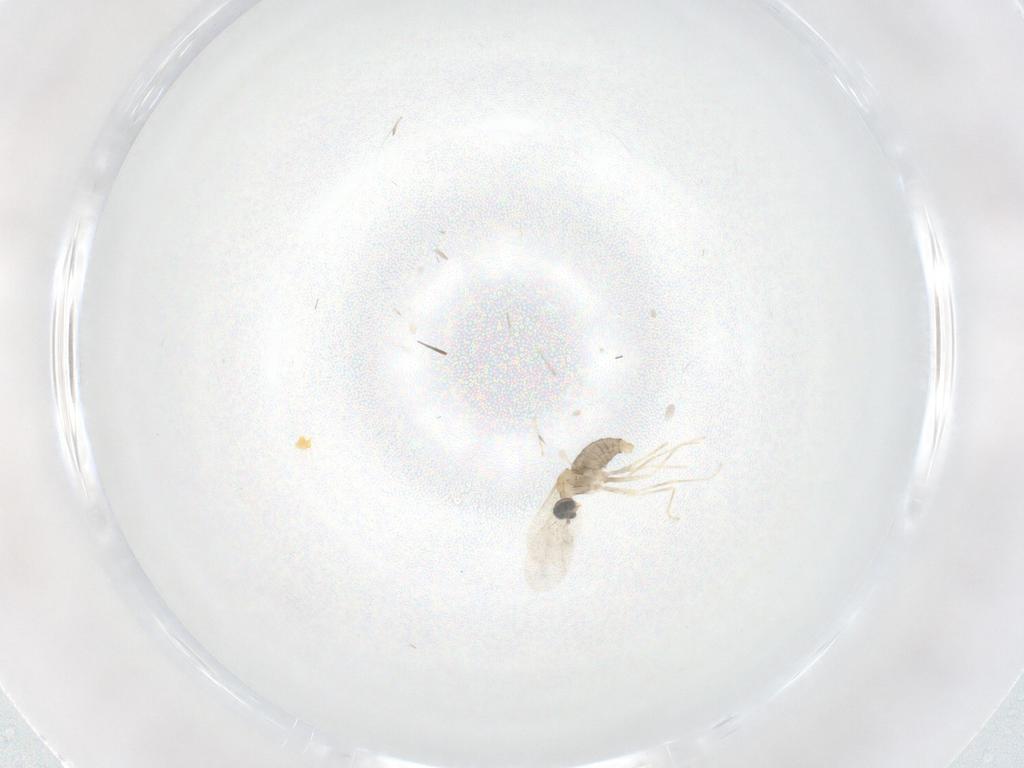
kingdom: Animalia
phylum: Arthropoda
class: Insecta
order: Diptera
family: Cecidomyiidae
